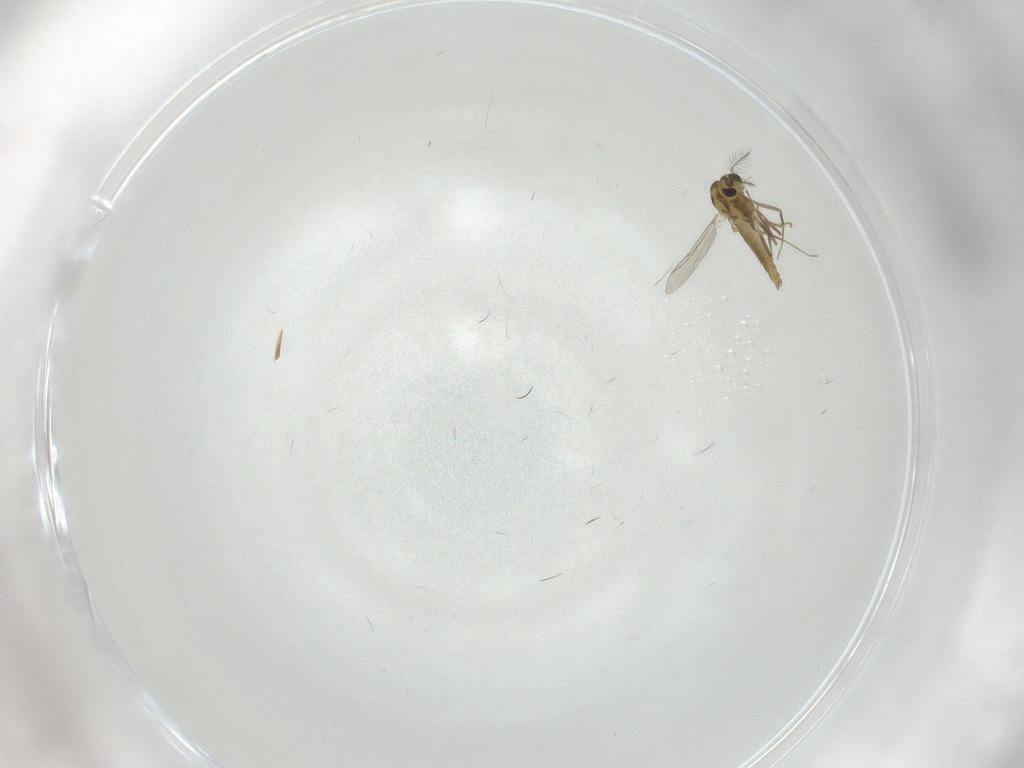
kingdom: Animalia
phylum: Arthropoda
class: Insecta
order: Diptera
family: Chironomidae
